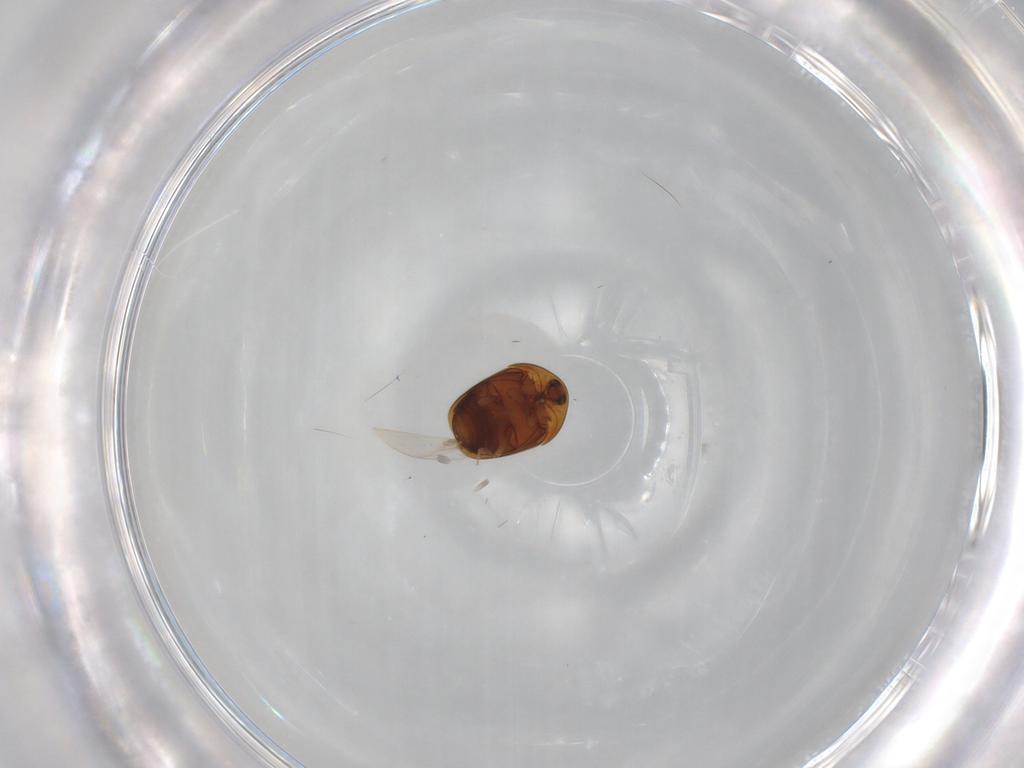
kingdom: Animalia
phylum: Arthropoda
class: Insecta
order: Coleoptera
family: Corylophidae
